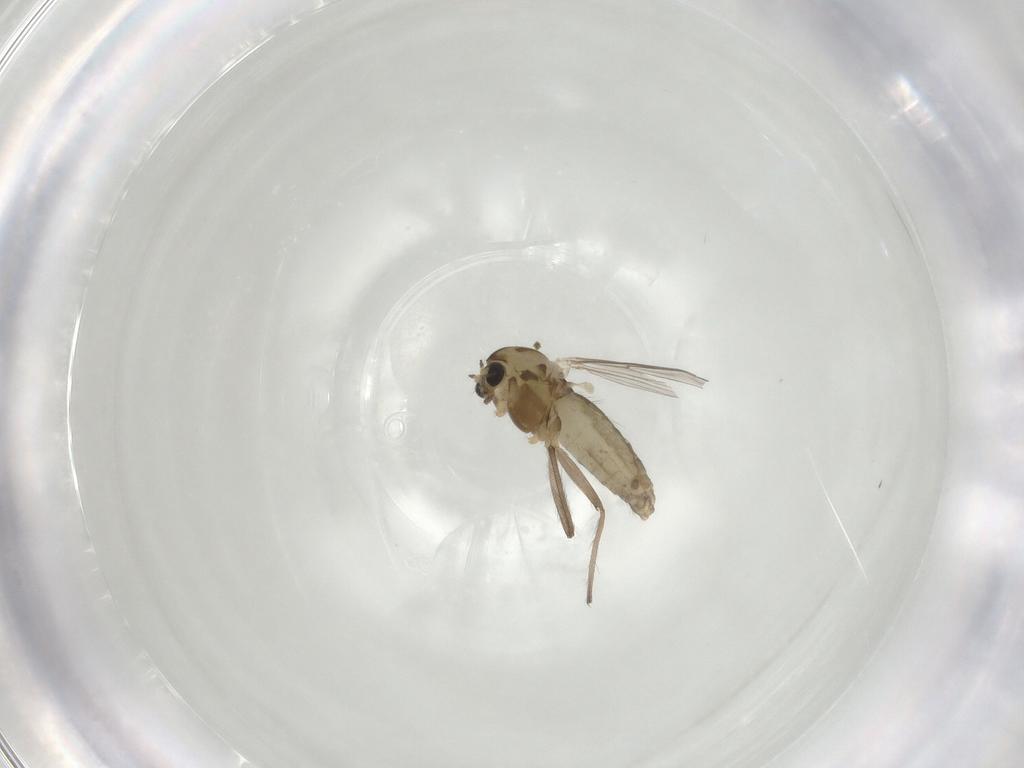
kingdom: Animalia
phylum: Arthropoda
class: Insecta
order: Diptera
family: Chironomidae
